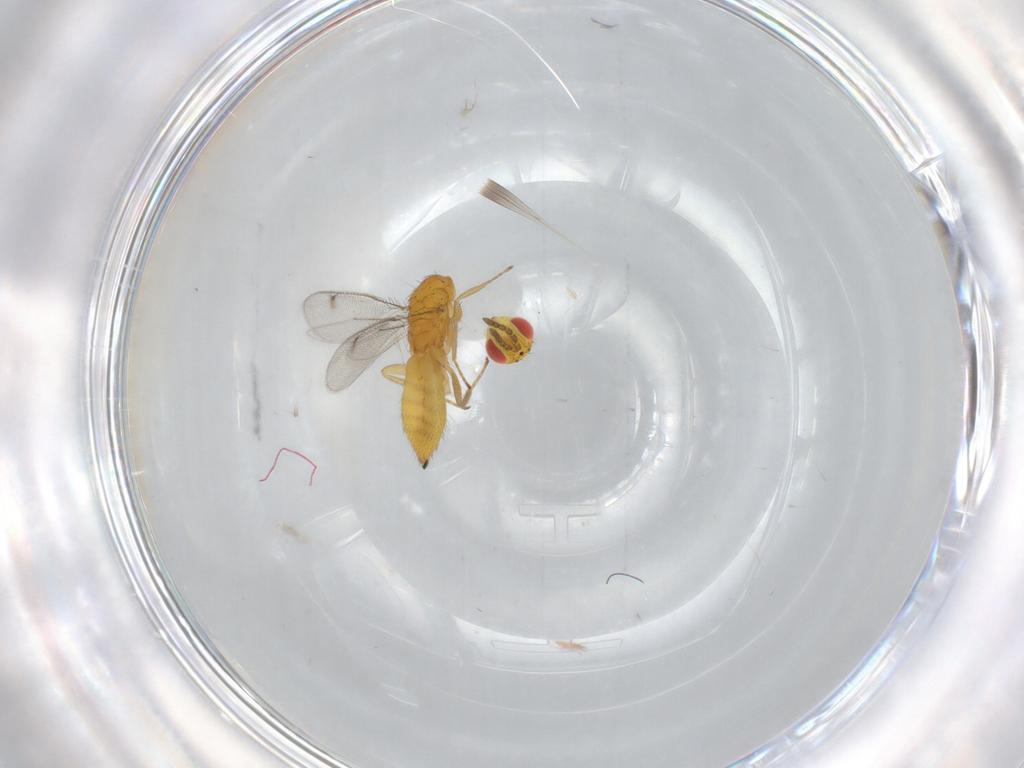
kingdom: Animalia
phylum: Arthropoda
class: Insecta
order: Hymenoptera
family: Eulophidae
